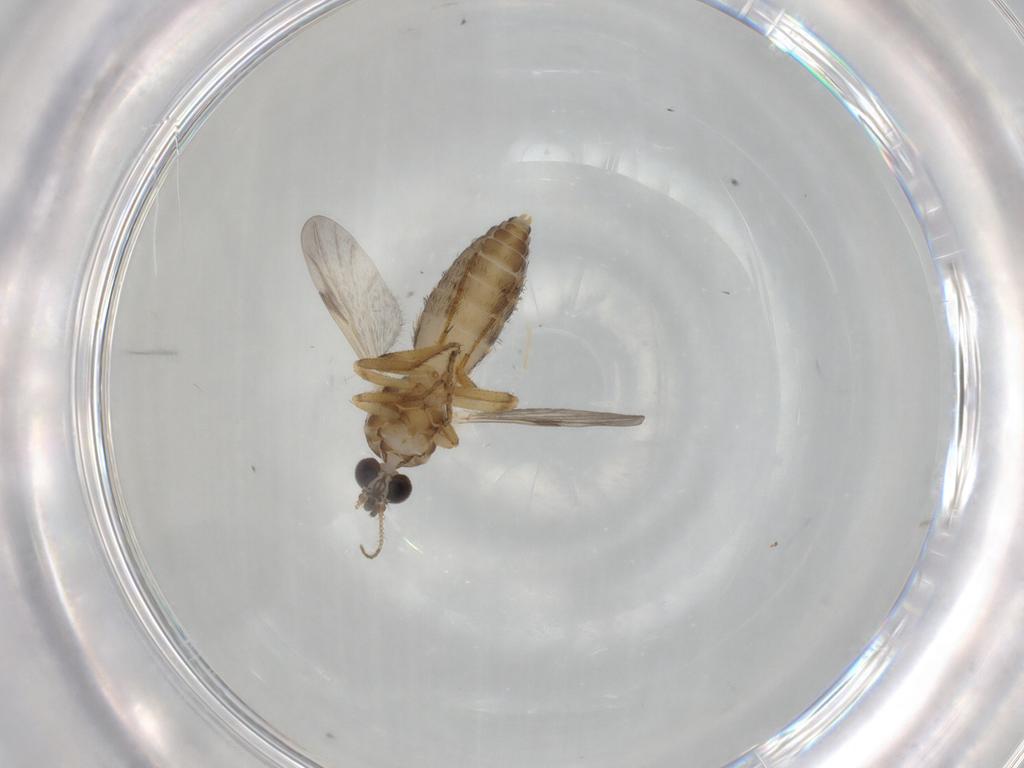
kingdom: Animalia
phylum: Arthropoda
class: Insecta
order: Diptera
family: Ceratopogonidae
